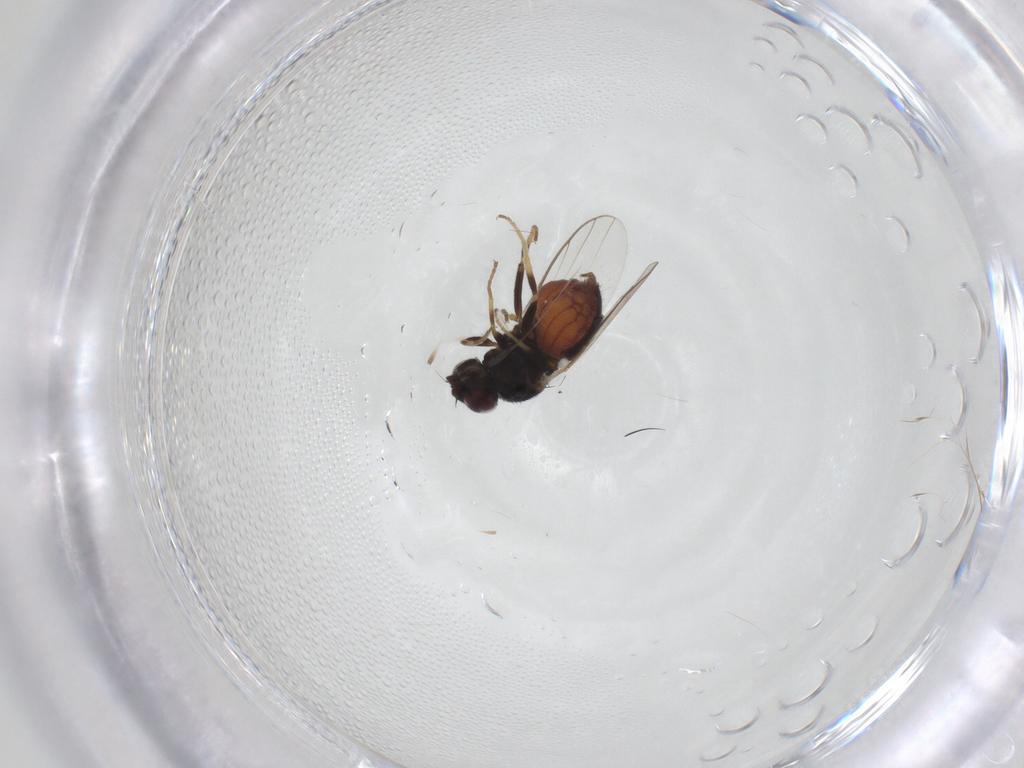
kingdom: Animalia
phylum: Arthropoda
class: Insecta
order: Diptera
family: Chloropidae
